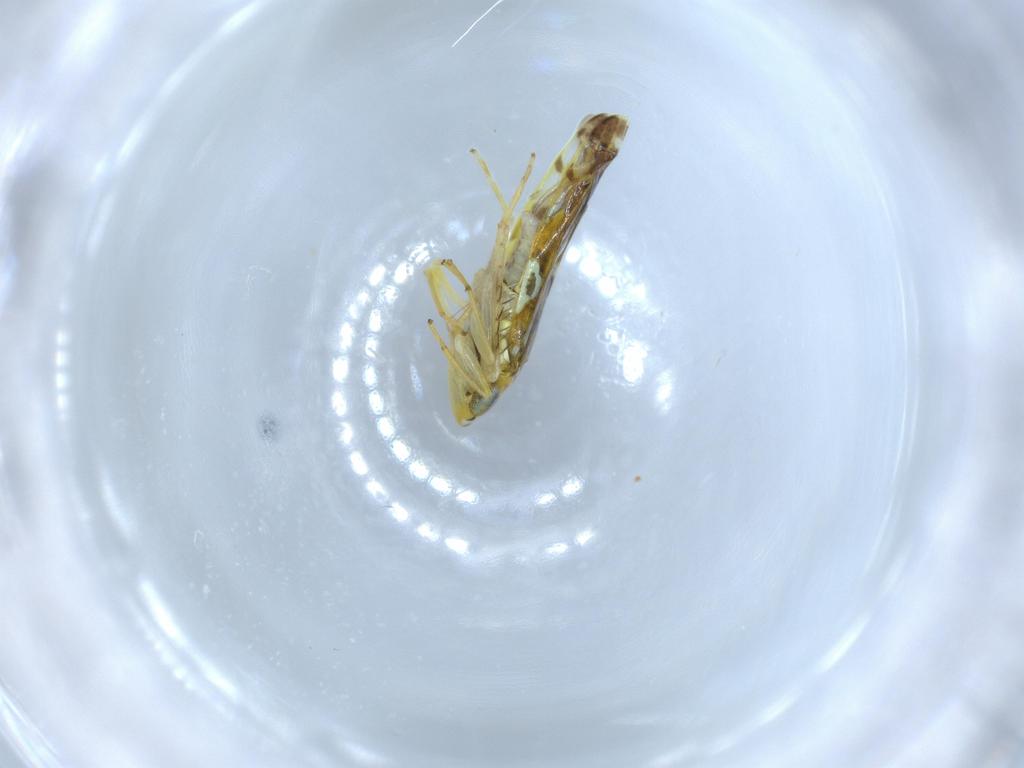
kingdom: Animalia
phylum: Arthropoda
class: Insecta
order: Hemiptera
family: Cicadellidae
